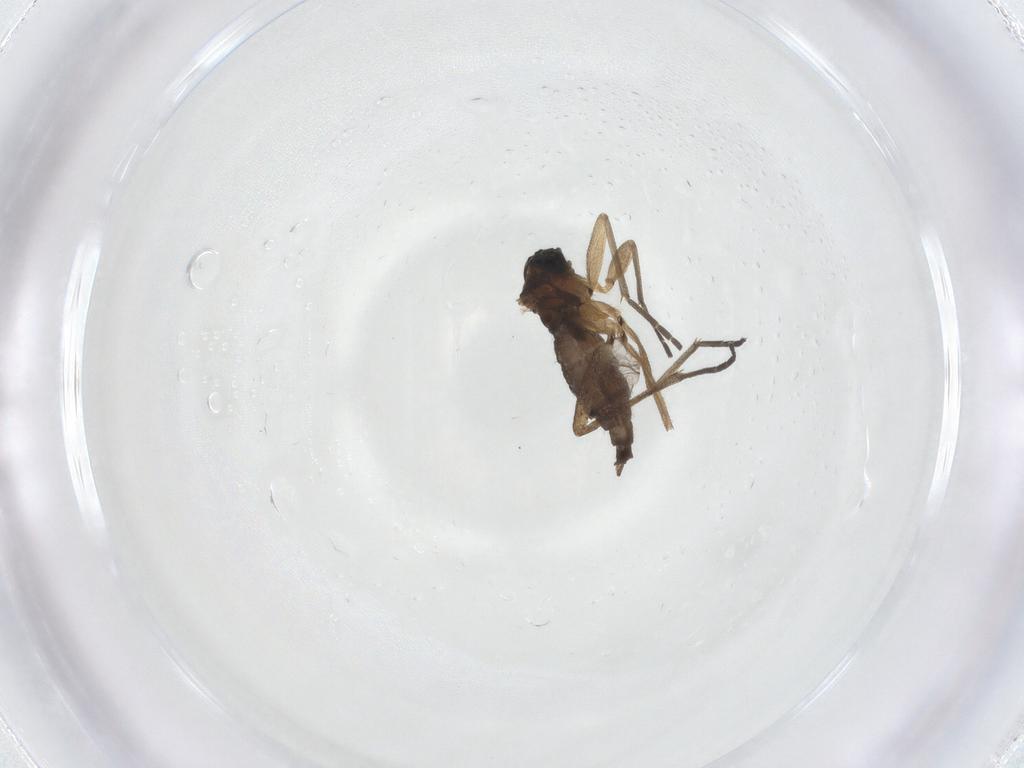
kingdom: Animalia
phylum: Arthropoda
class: Insecta
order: Diptera
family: Sciaridae
